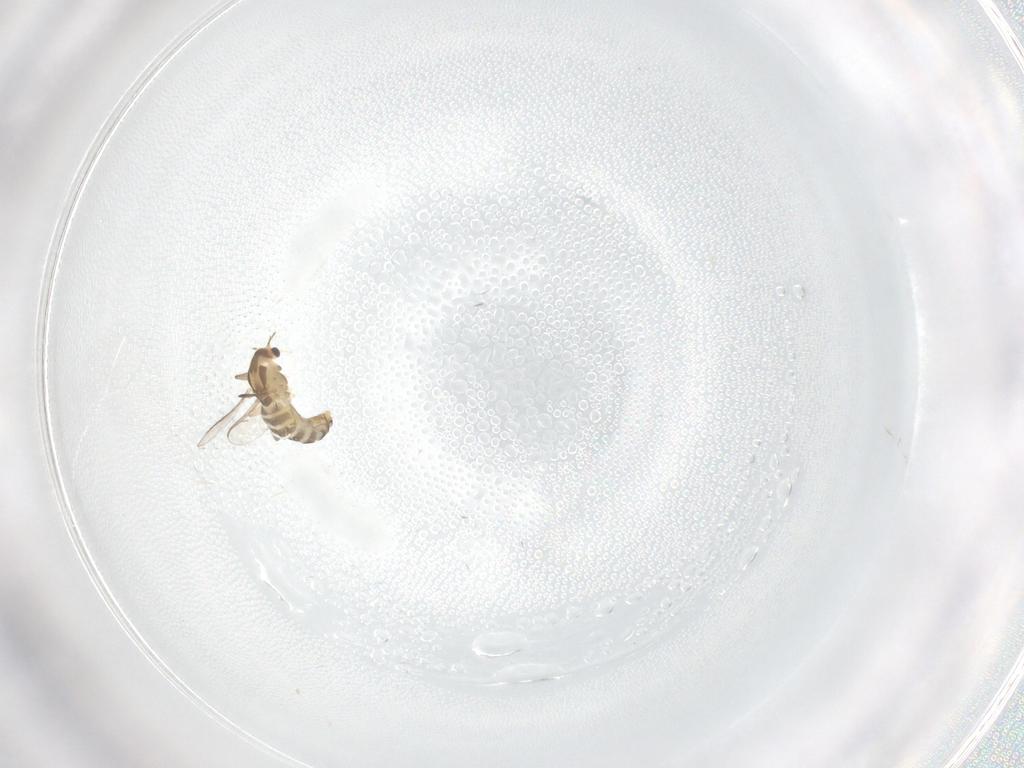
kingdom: Animalia
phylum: Arthropoda
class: Insecta
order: Diptera
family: Chironomidae
